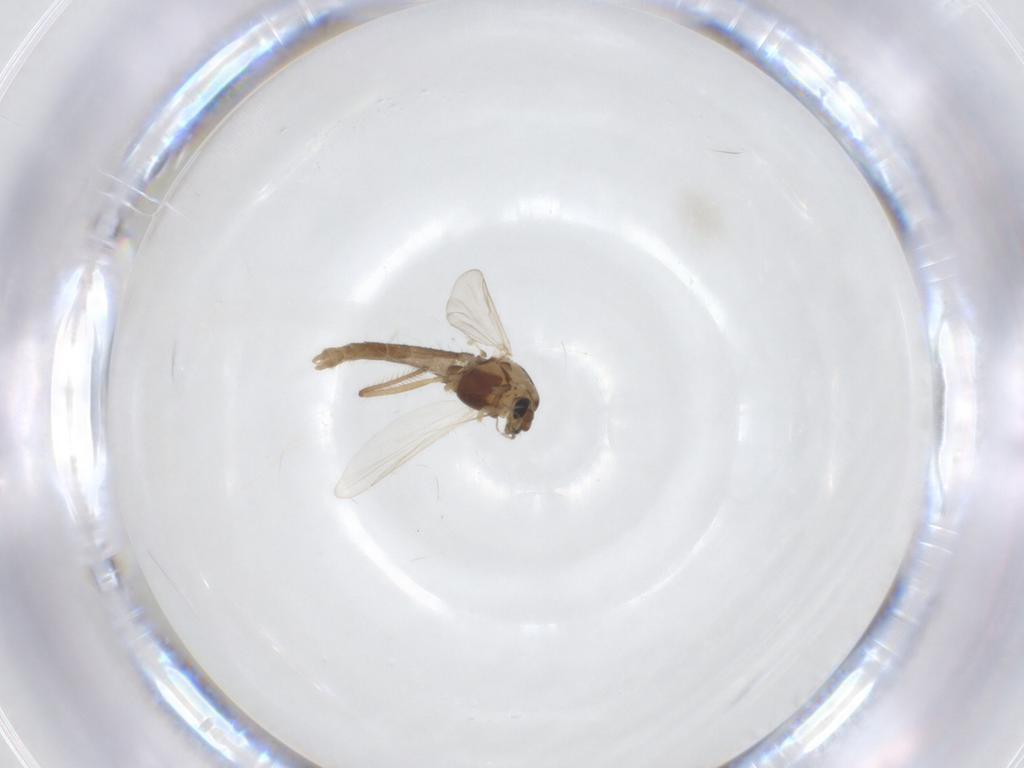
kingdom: Animalia
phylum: Arthropoda
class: Insecta
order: Diptera
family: Chironomidae
